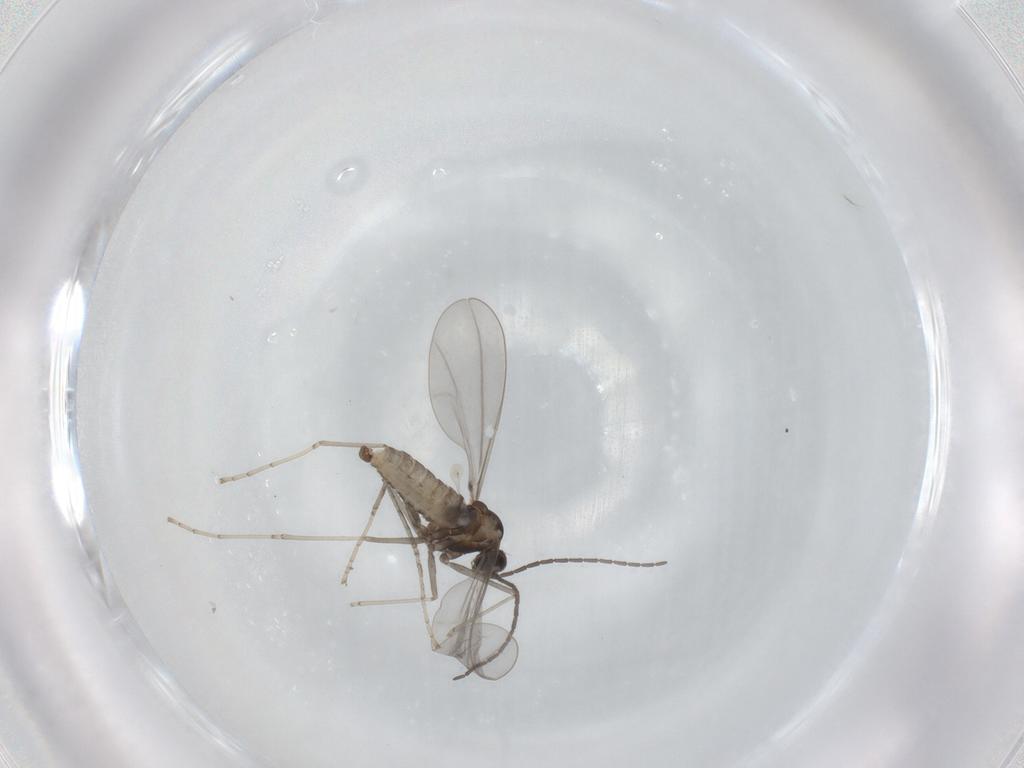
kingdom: Animalia
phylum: Arthropoda
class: Insecta
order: Diptera
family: Cecidomyiidae
